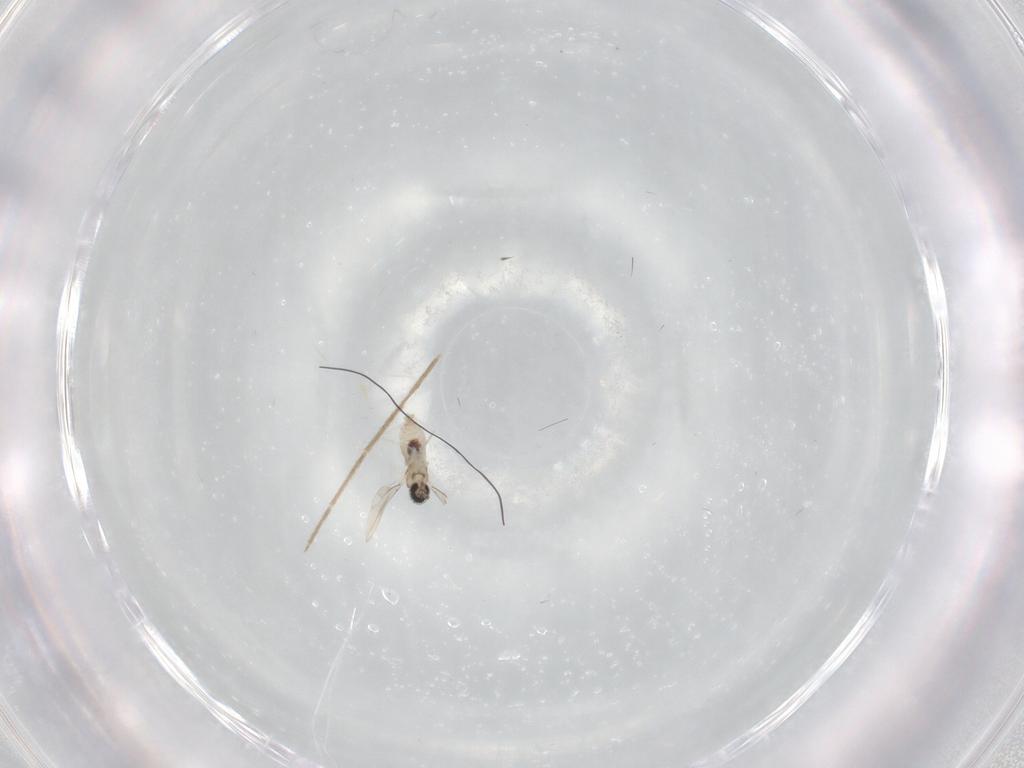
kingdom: Animalia
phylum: Arthropoda
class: Insecta
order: Diptera
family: Cecidomyiidae
